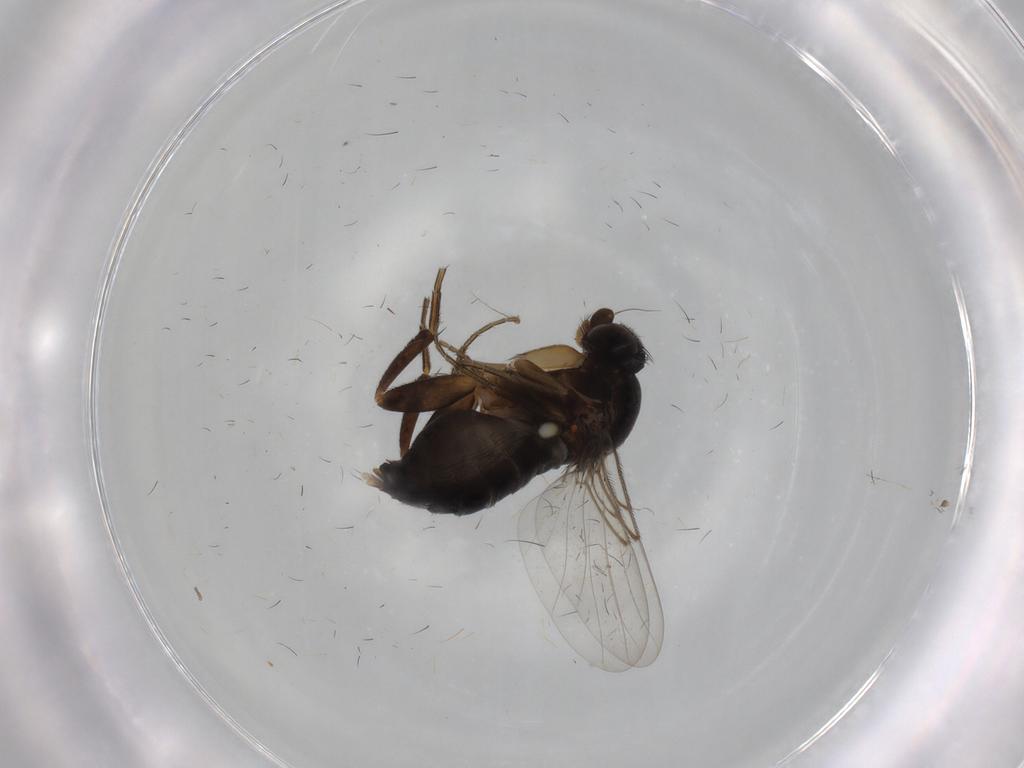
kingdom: Animalia
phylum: Arthropoda
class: Insecta
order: Diptera
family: Phoridae
